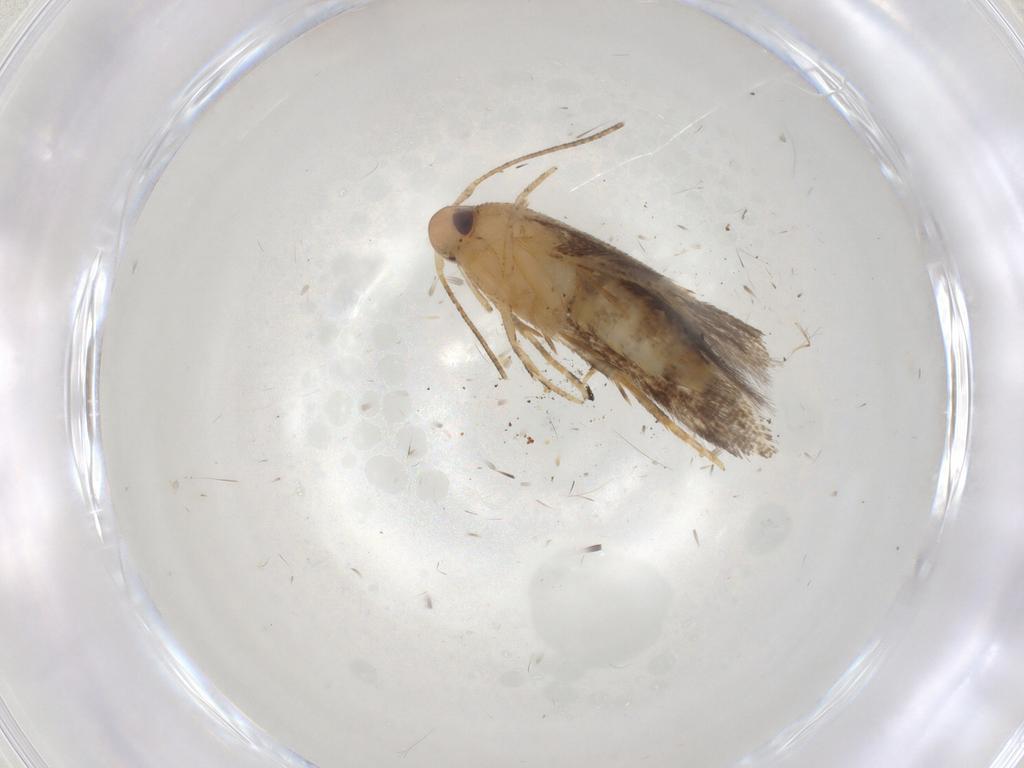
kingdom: Animalia
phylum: Arthropoda
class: Insecta
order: Lepidoptera
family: Momphidae
